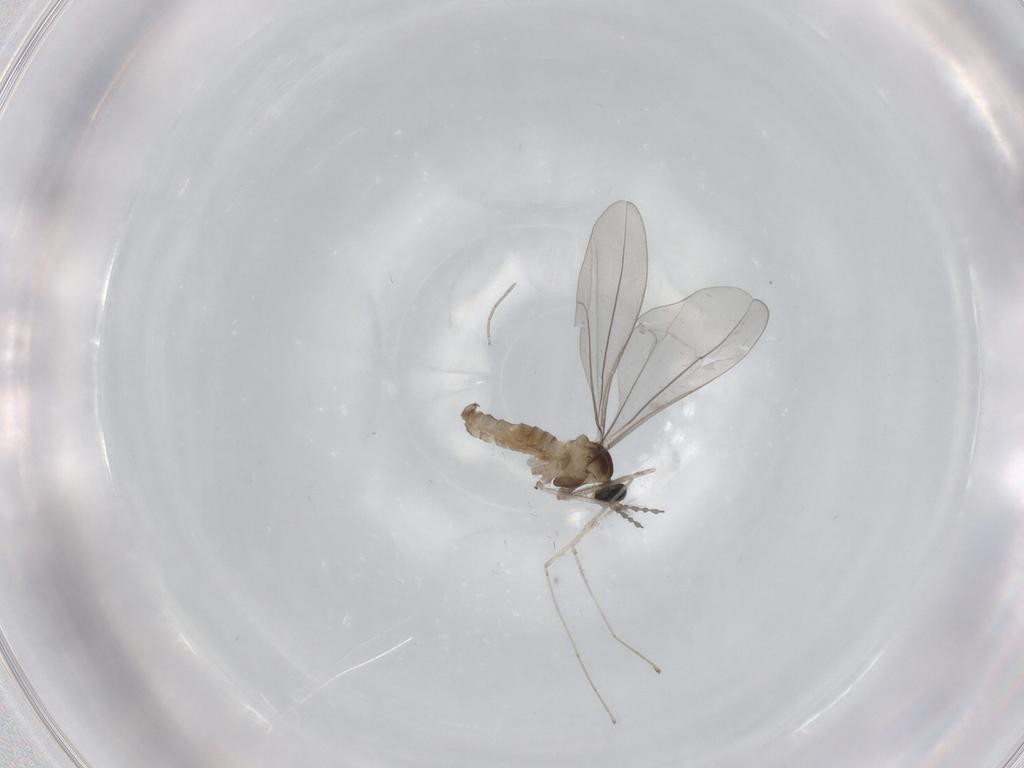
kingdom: Animalia
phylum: Arthropoda
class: Insecta
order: Diptera
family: Cecidomyiidae
